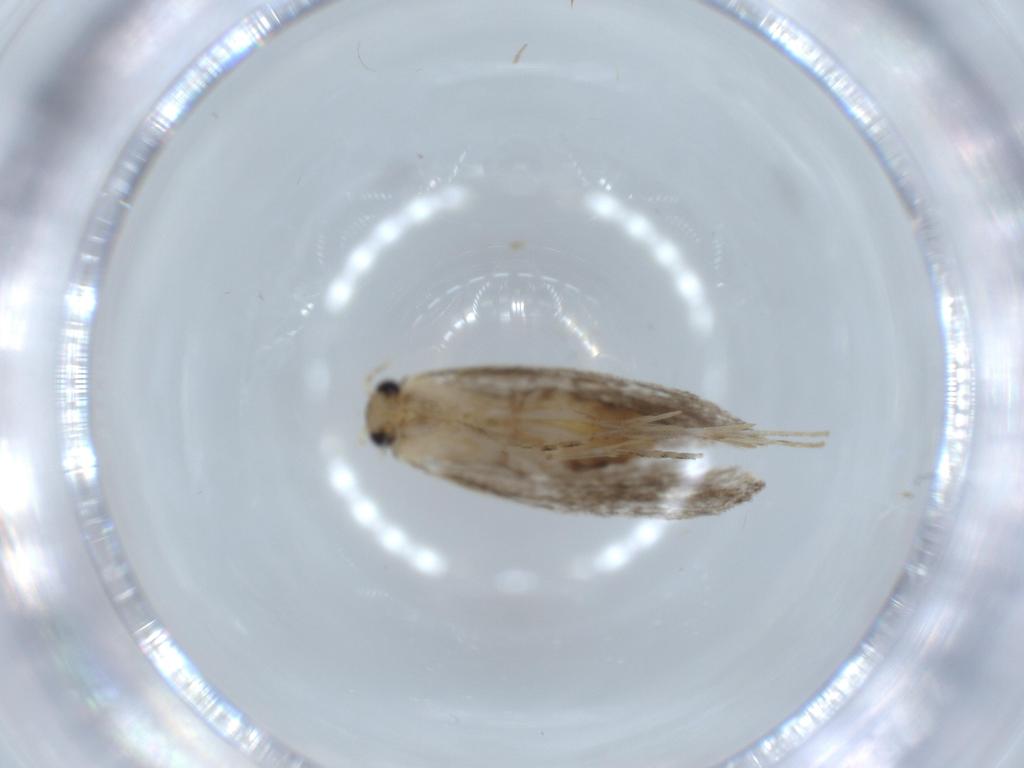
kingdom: Animalia
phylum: Arthropoda
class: Insecta
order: Lepidoptera
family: Tineidae
